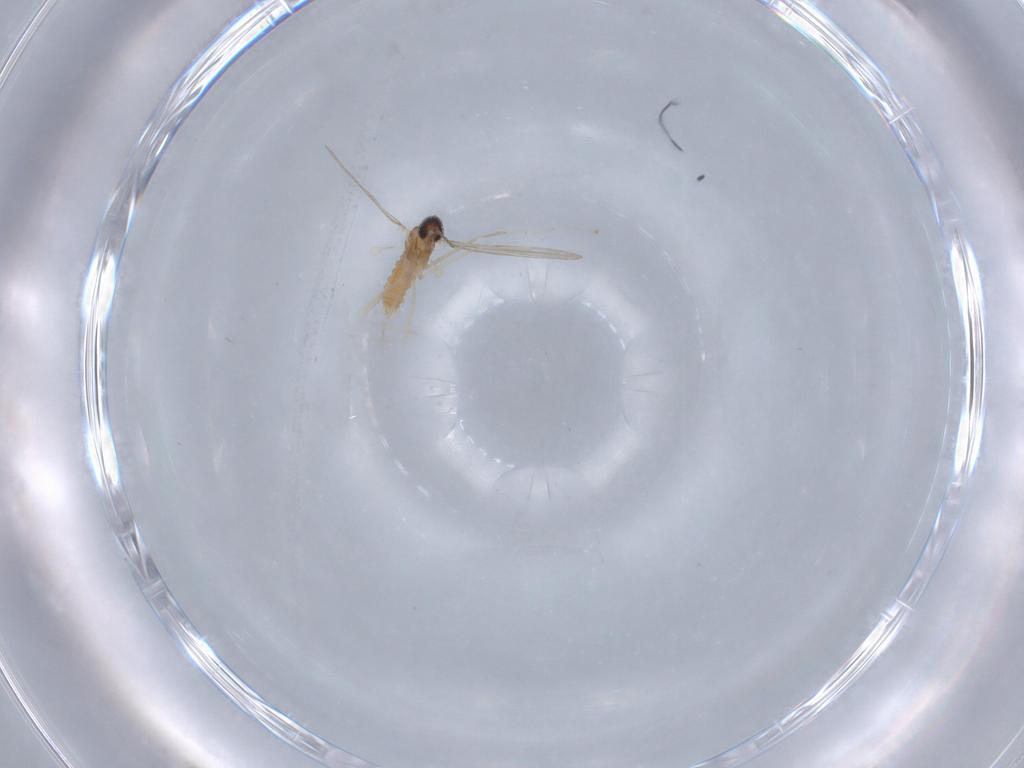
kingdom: Animalia
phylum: Arthropoda
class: Insecta
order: Diptera
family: Cecidomyiidae
